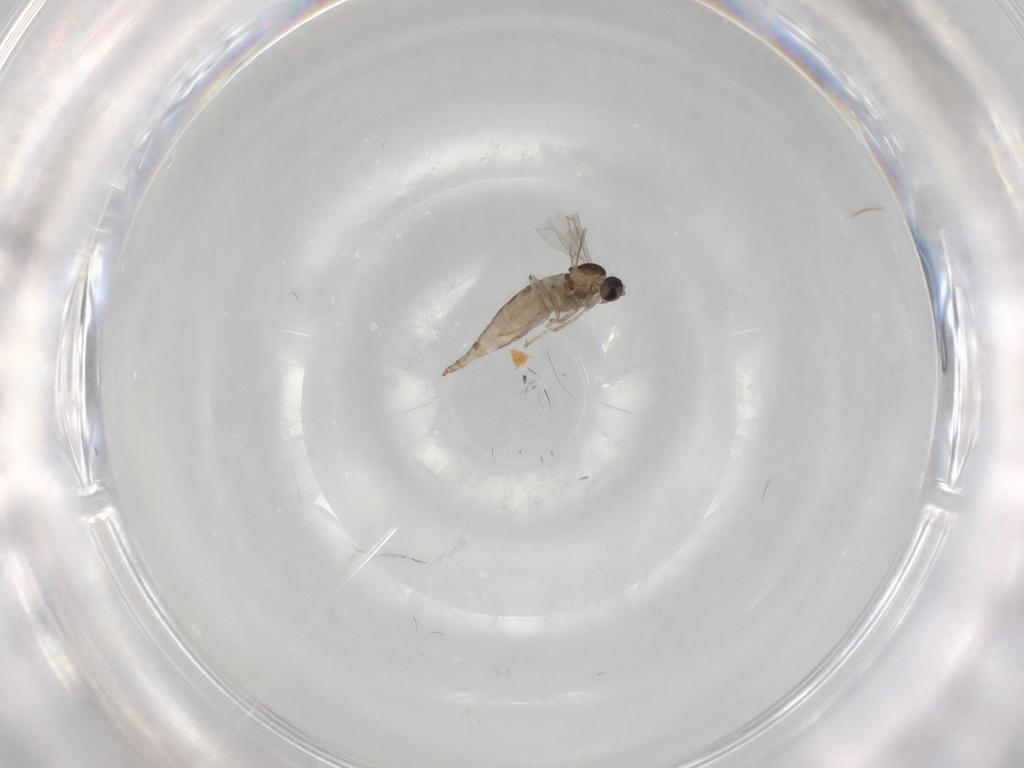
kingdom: Animalia
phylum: Arthropoda
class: Insecta
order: Diptera
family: Cecidomyiidae
